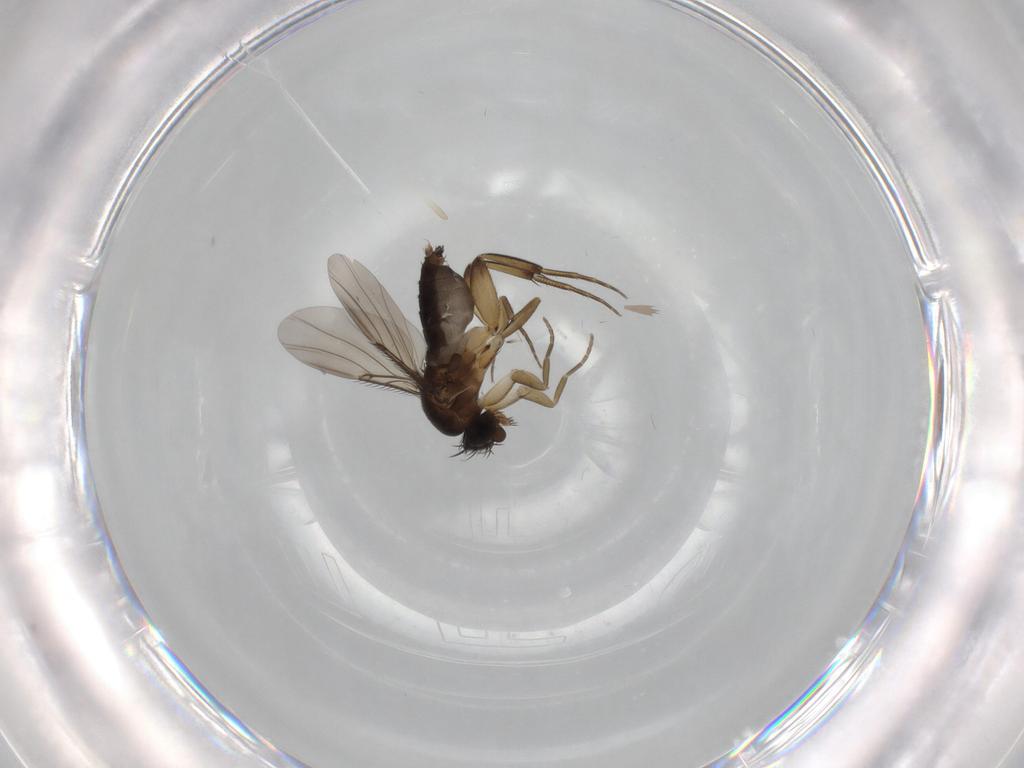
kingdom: Animalia
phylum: Arthropoda
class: Insecta
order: Diptera
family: Phoridae
